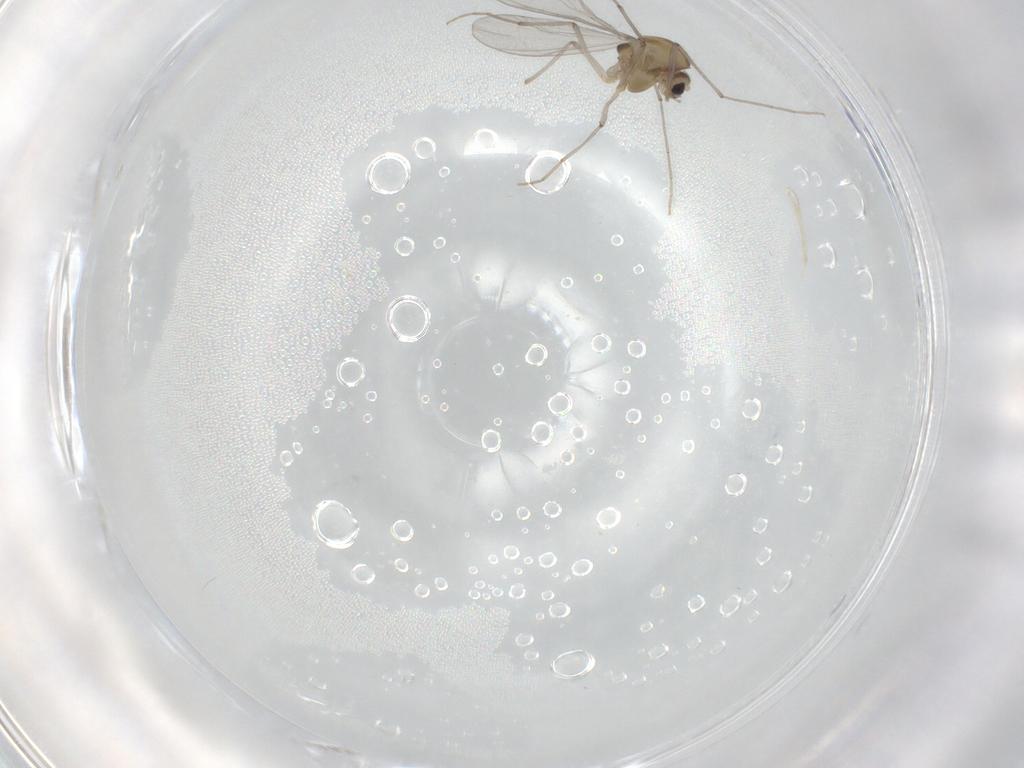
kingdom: Animalia
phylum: Arthropoda
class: Insecta
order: Diptera
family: Chironomidae
